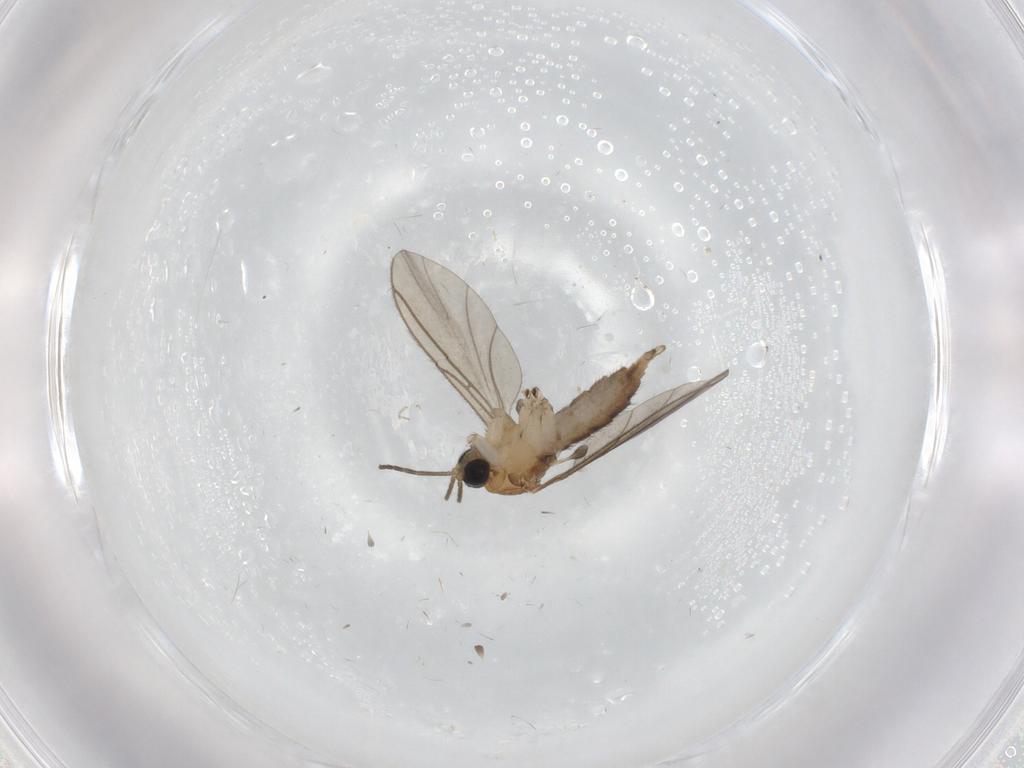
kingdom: Animalia
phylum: Arthropoda
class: Insecta
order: Diptera
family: Sciaridae
